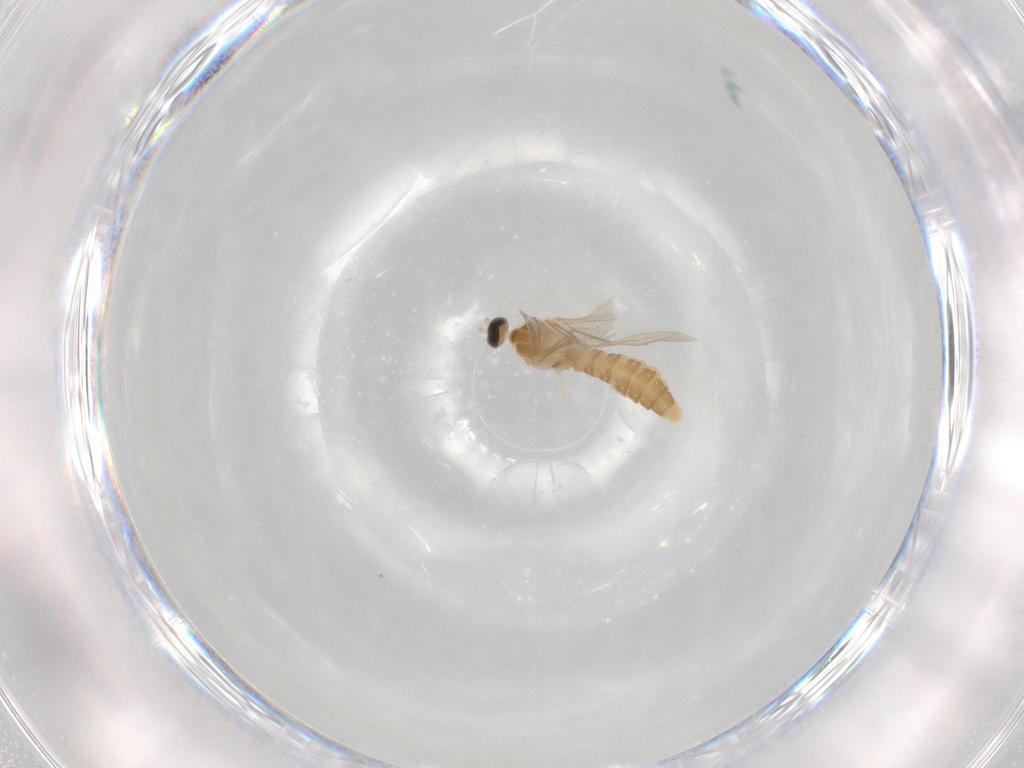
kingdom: Animalia
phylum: Arthropoda
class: Insecta
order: Diptera
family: Cecidomyiidae
